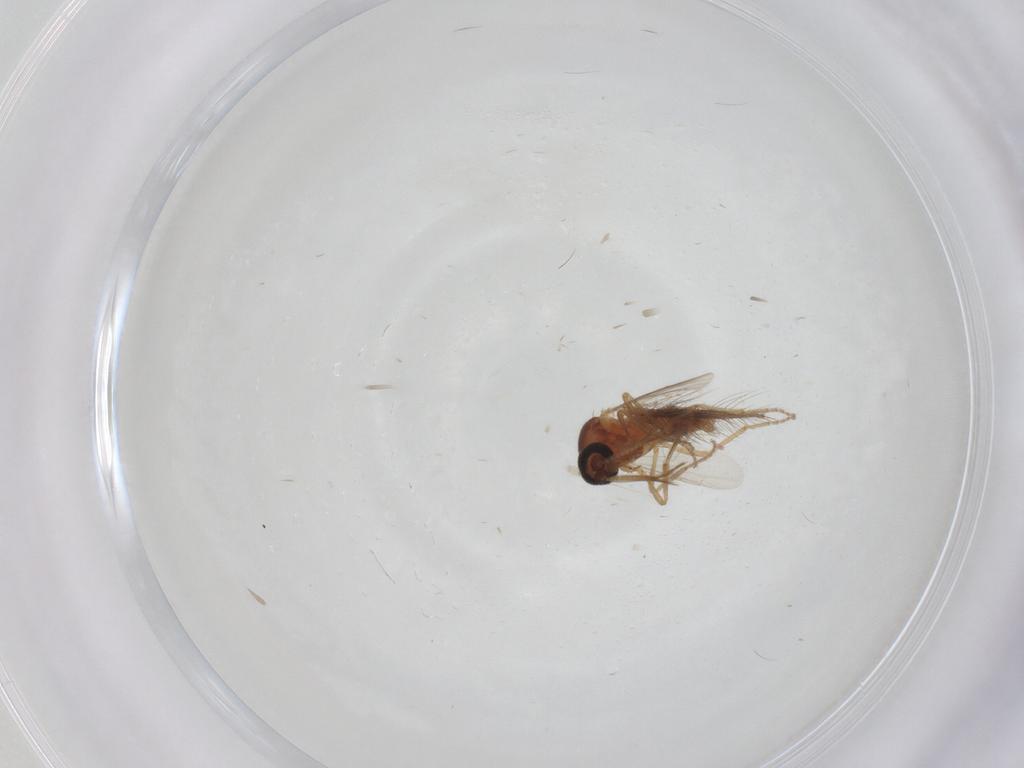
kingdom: Animalia
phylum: Arthropoda
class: Insecta
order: Diptera
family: Ceratopogonidae
